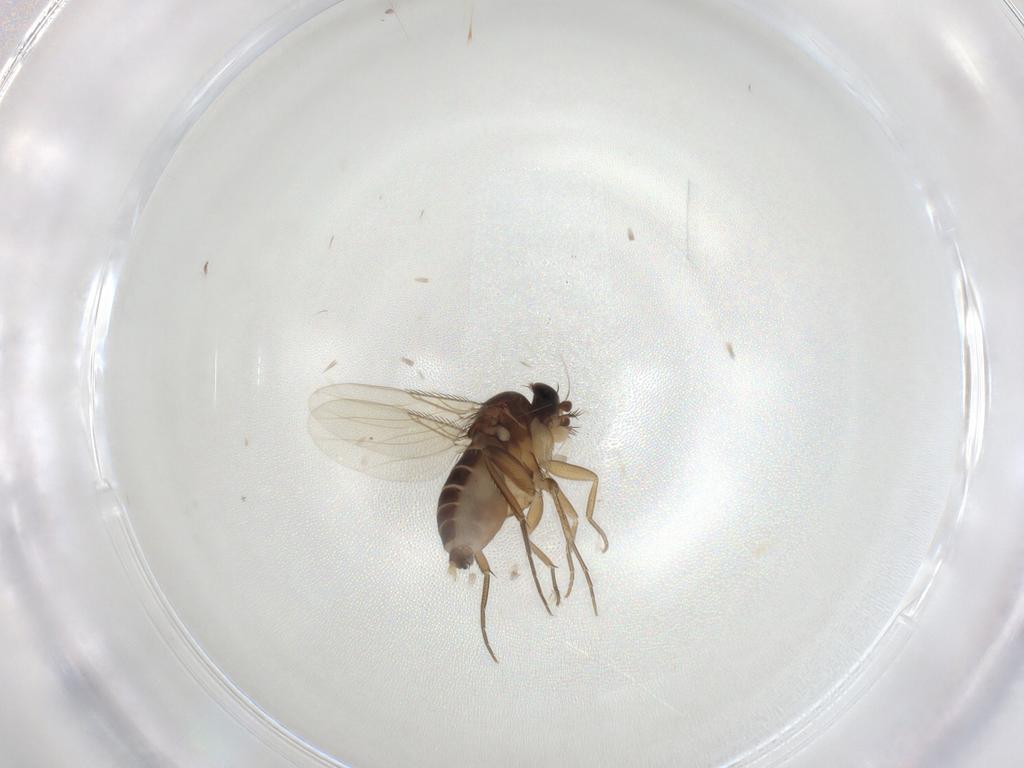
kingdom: Animalia
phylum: Arthropoda
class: Insecta
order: Diptera
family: Phoridae
